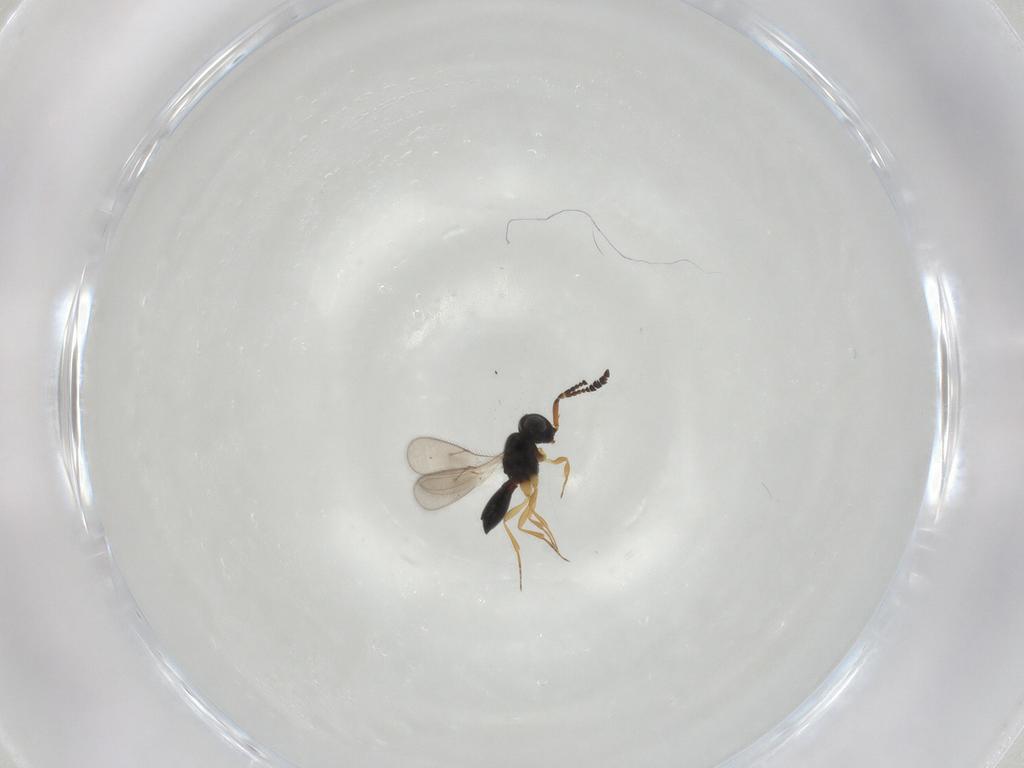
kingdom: Animalia
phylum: Arthropoda
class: Insecta
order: Hymenoptera
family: Scelionidae
